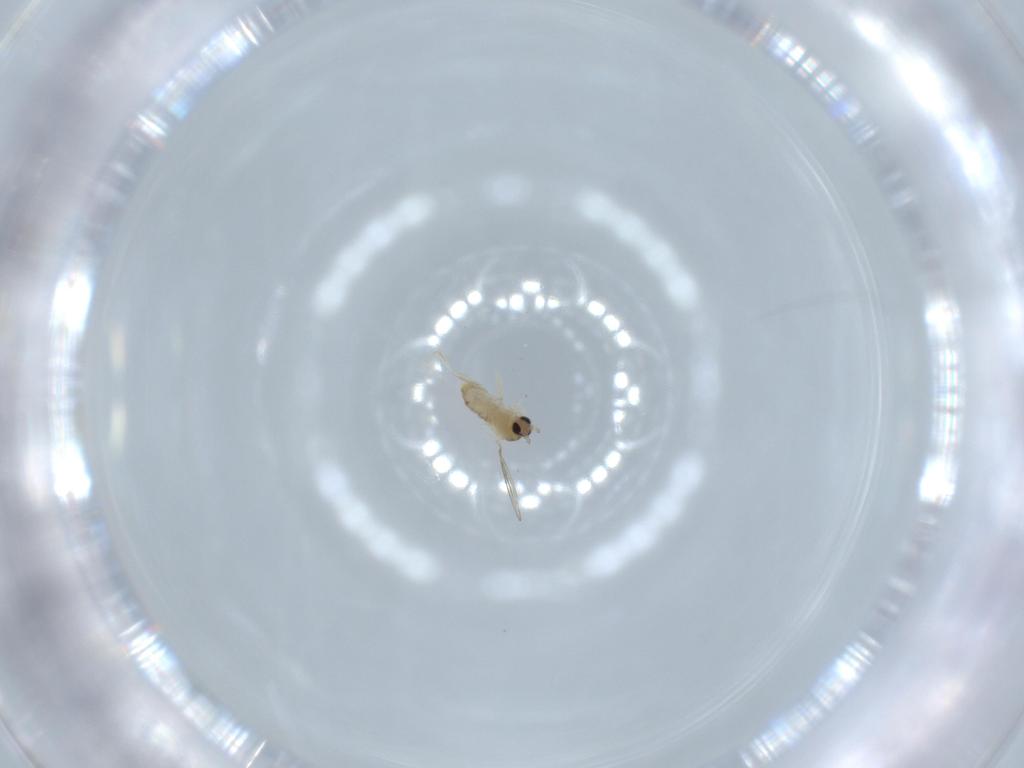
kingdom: Animalia
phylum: Arthropoda
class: Insecta
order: Diptera
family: Cecidomyiidae
